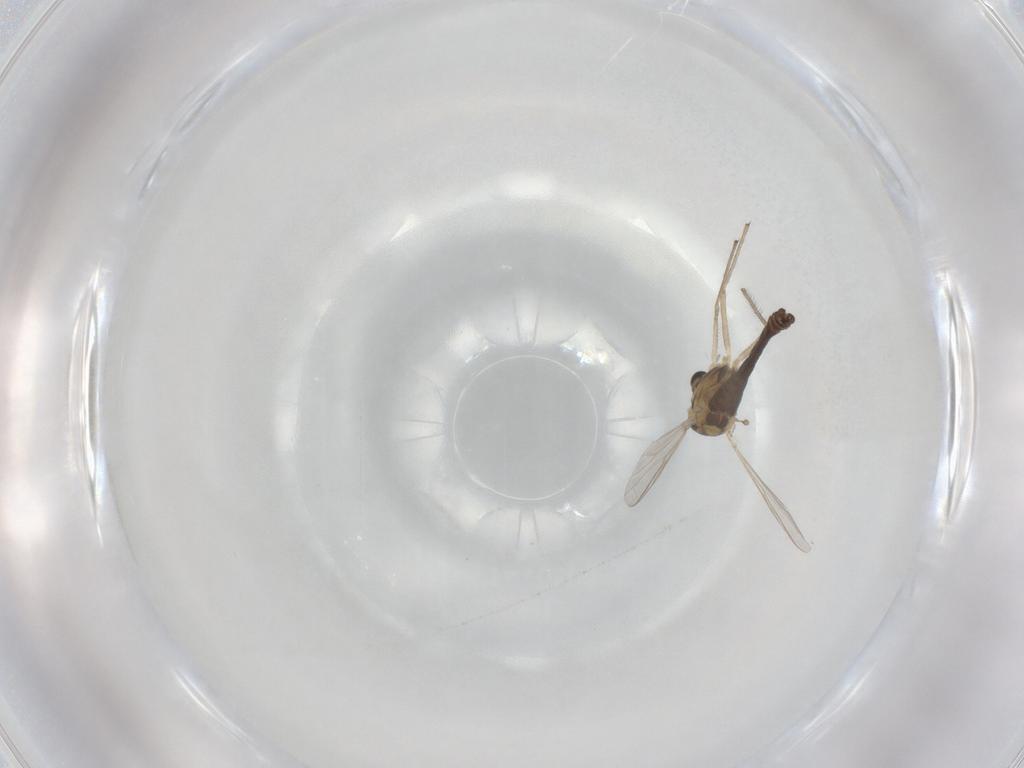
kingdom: Animalia
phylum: Arthropoda
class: Insecta
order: Diptera
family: Chironomidae
